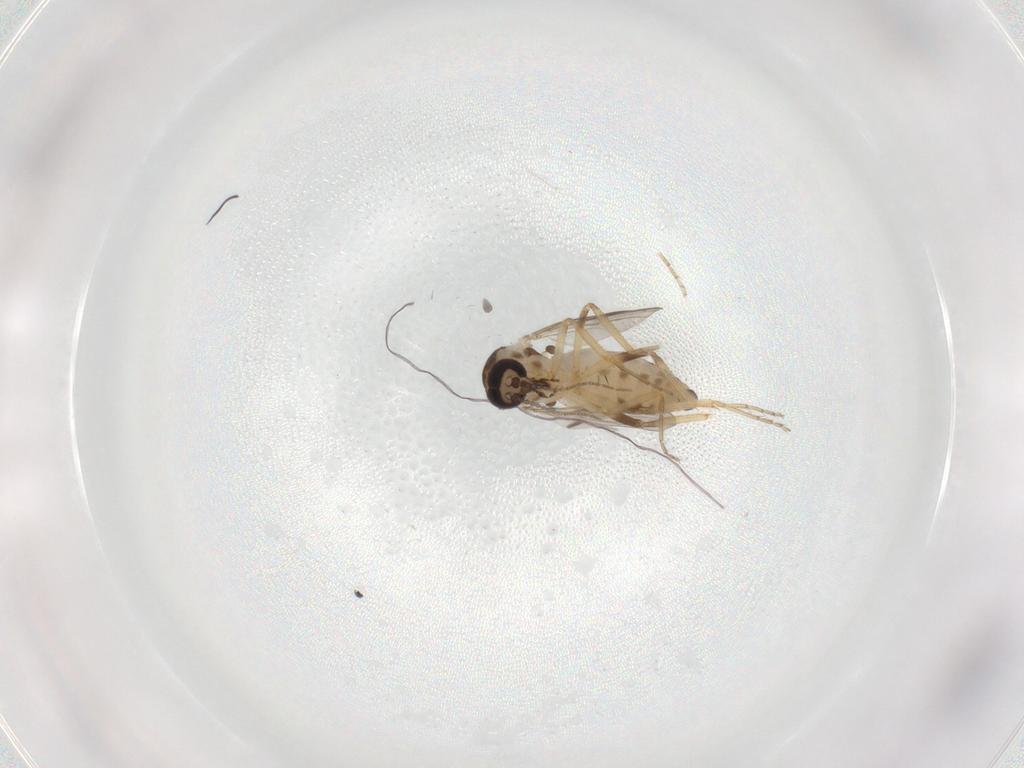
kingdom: Animalia
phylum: Arthropoda
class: Insecta
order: Diptera
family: Ceratopogonidae
